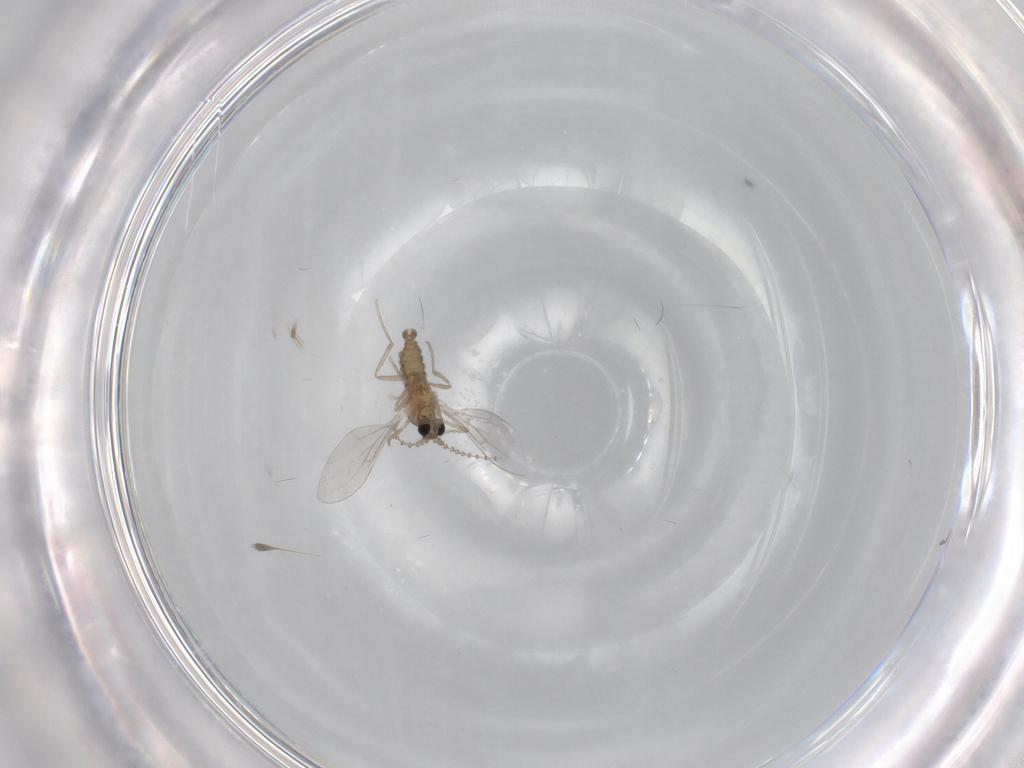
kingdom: Animalia
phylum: Arthropoda
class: Insecta
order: Diptera
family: Cecidomyiidae
